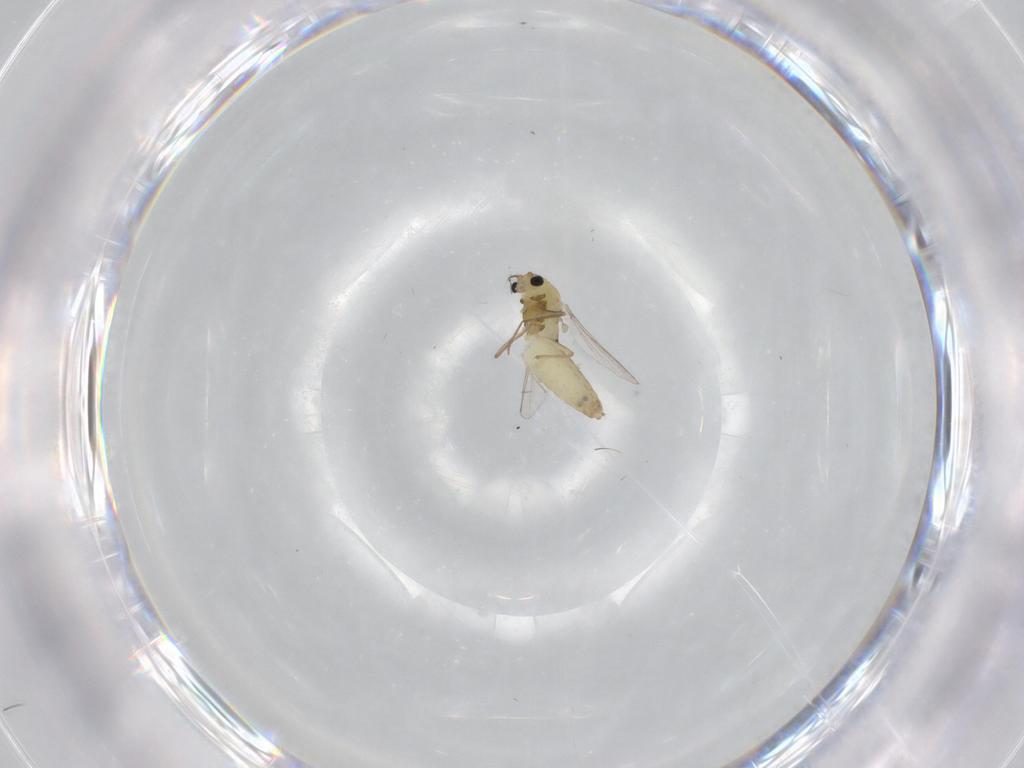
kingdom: Animalia
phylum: Arthropoda
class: Insecta
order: Diptera
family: Chironomidae
